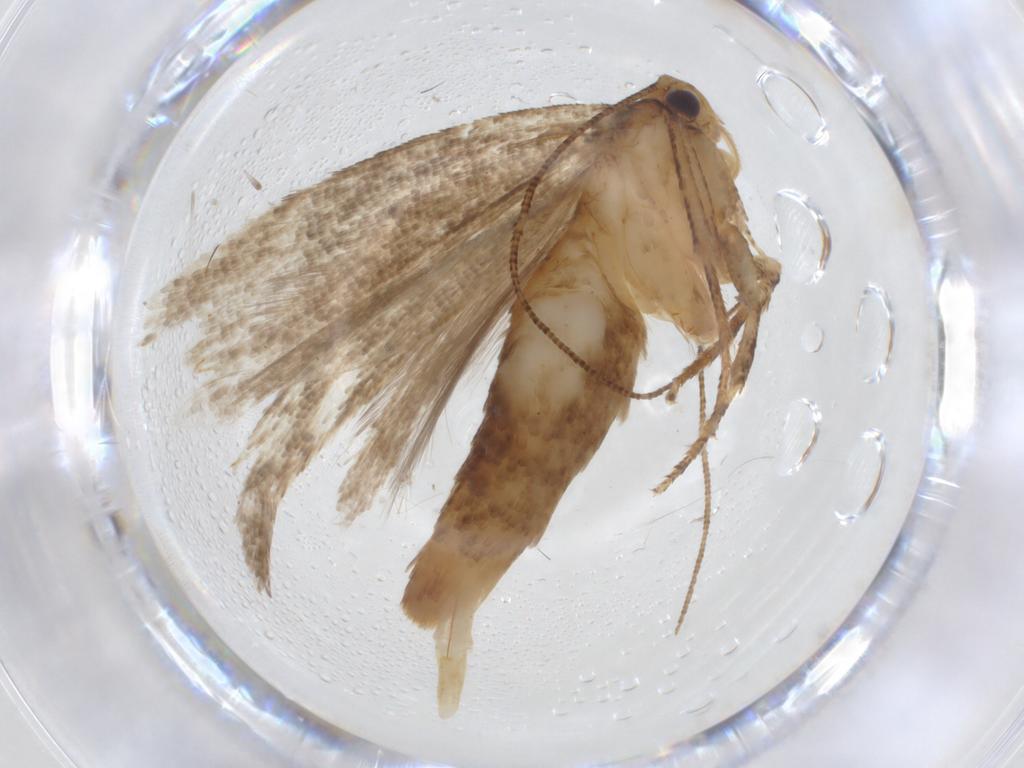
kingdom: Animalia
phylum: Arthropoda
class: Insecta
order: Lepidoptera
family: Gelechiidae
